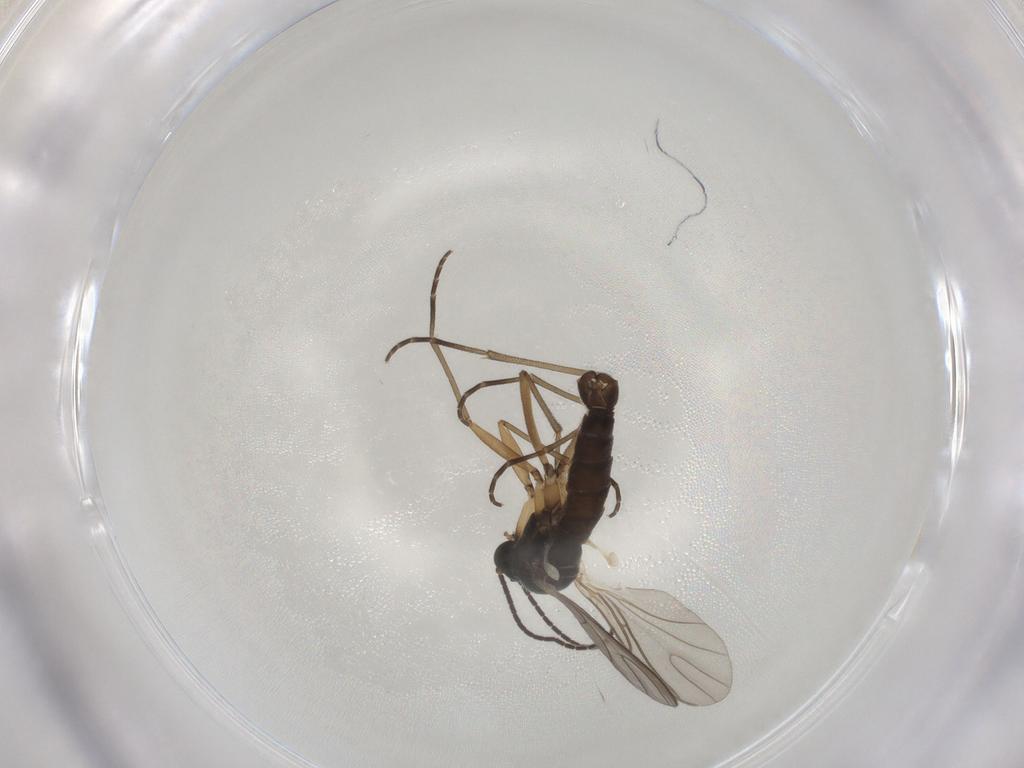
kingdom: Animalia
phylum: Arthropoda
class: Insecta
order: Diptera
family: Sciaridae
